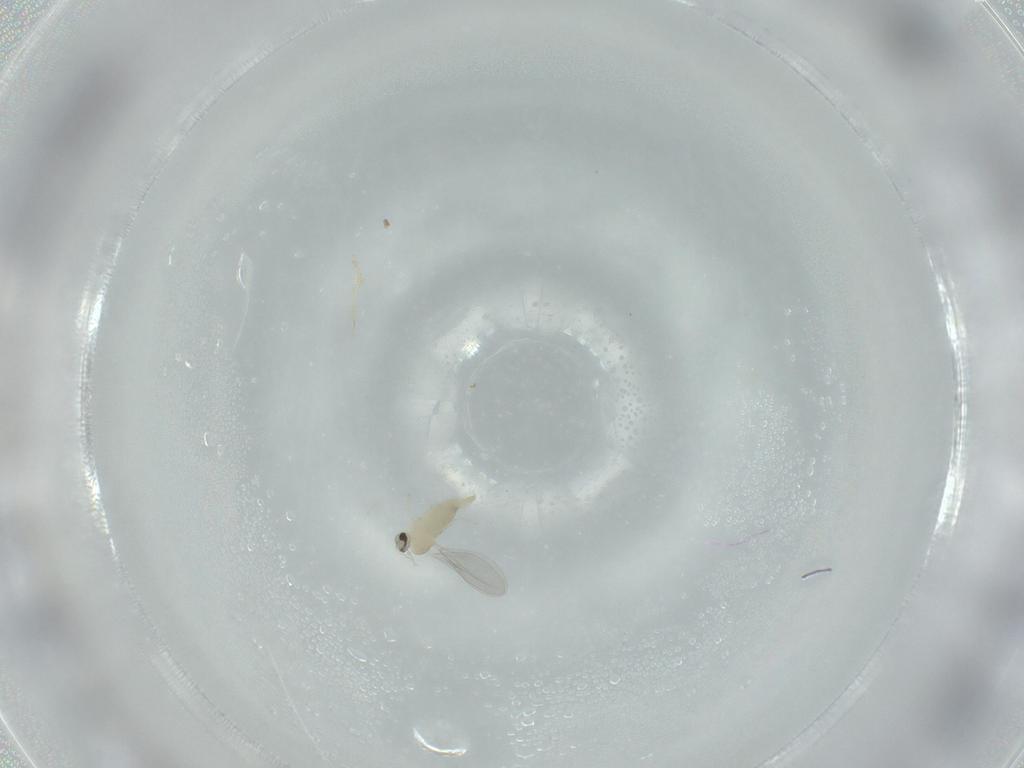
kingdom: Animalia
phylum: Arthropoda
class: Insecta
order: Diptera
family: Cecidomyiidae
